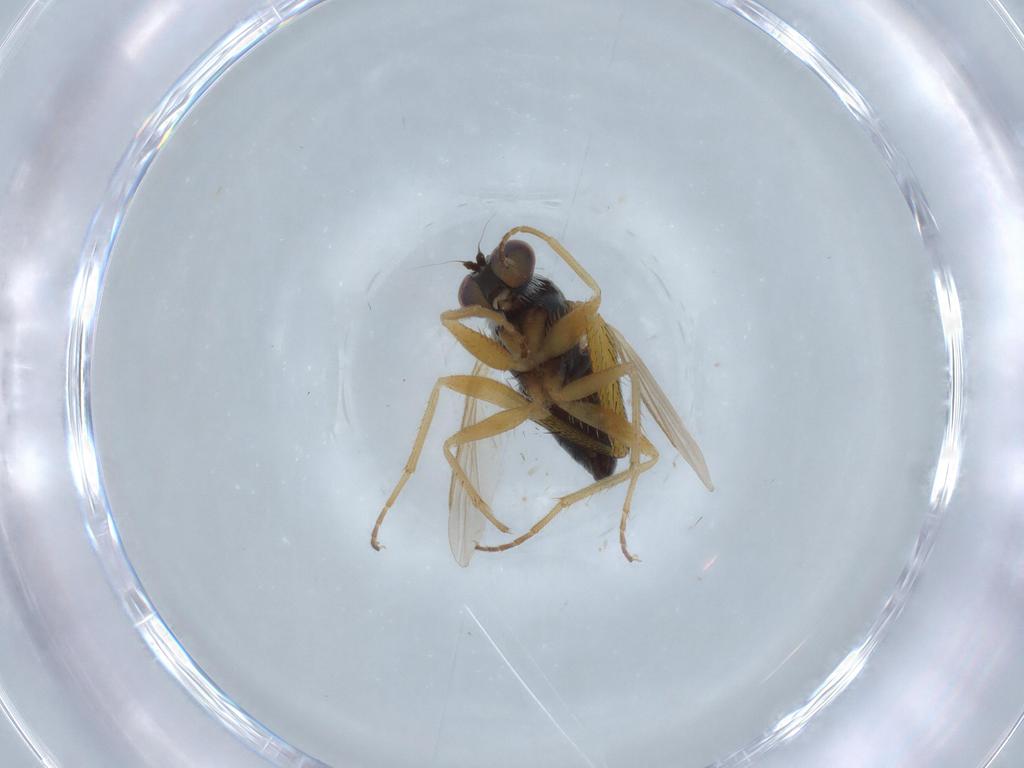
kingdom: Animalia
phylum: Arthropoda
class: Insecta
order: Diptera
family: Dolichopodidae
